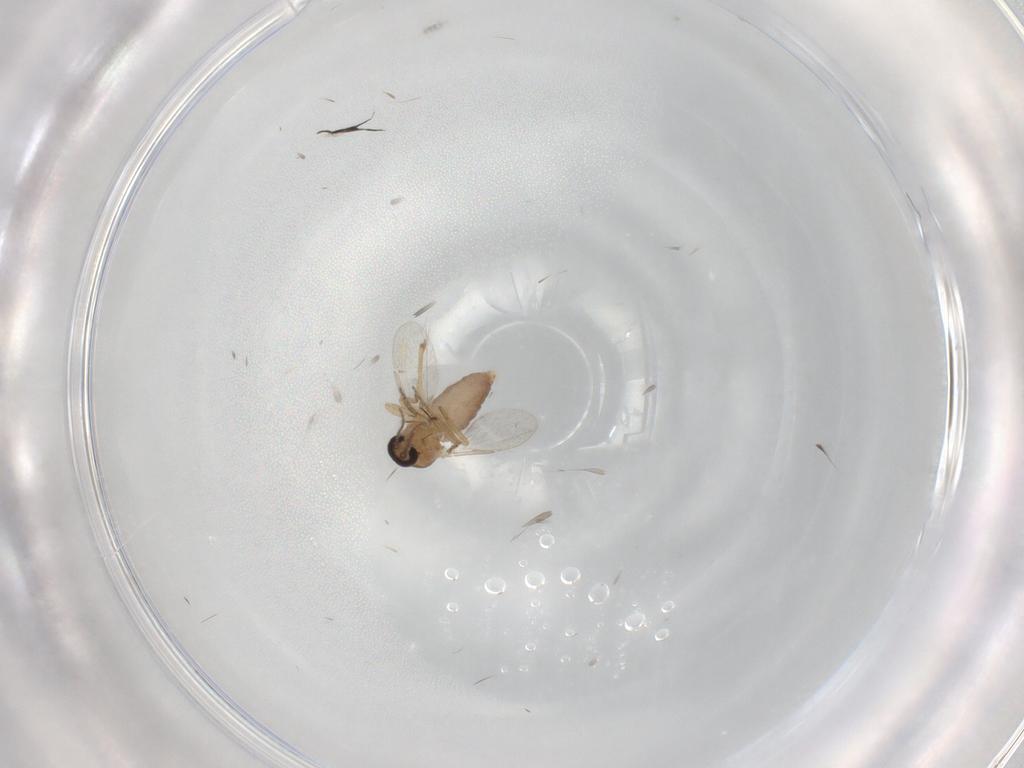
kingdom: Animalia
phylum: Arthropoda
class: Insecta
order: Diptera
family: Ceratopogonidae
